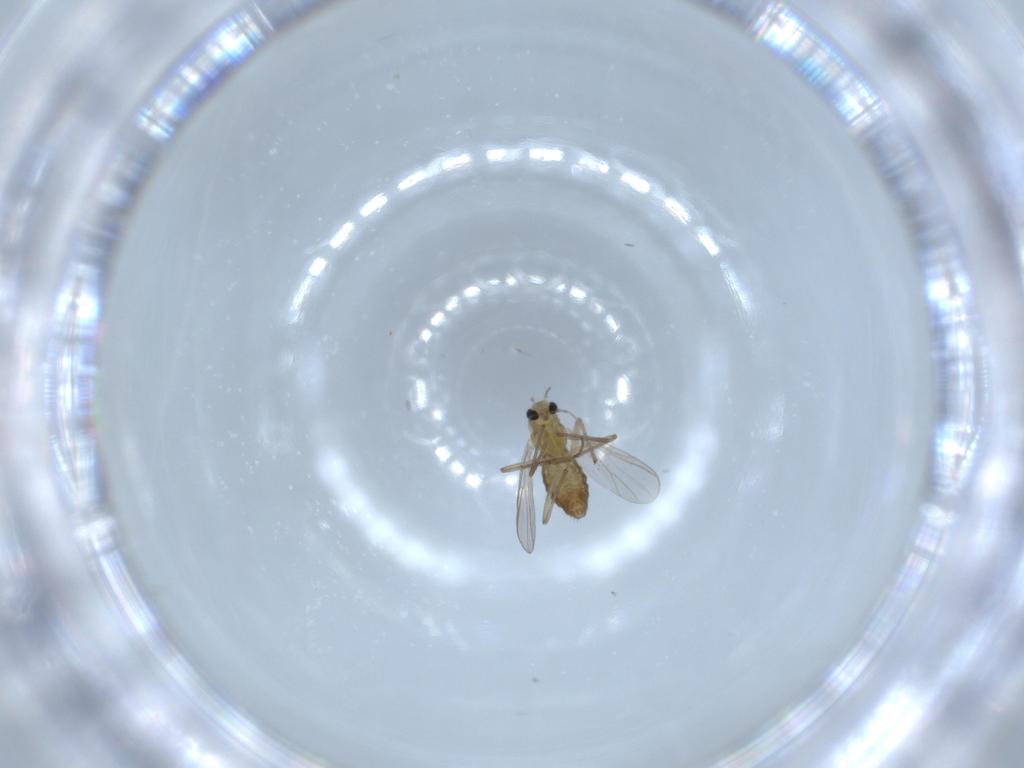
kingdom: Animalia
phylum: Arthropoda
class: Insecta
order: Diptera
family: Chironomidae
